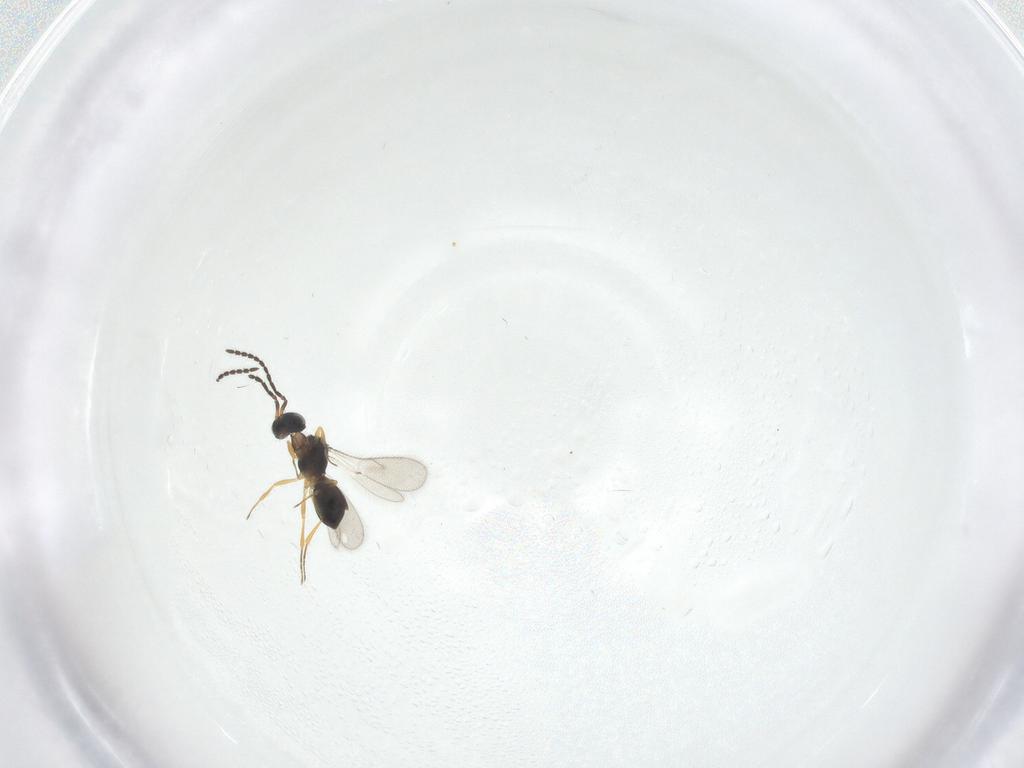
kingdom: Animalia
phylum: Arthropoda
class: Insecta
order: Hymenoptera
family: Scelionidae
